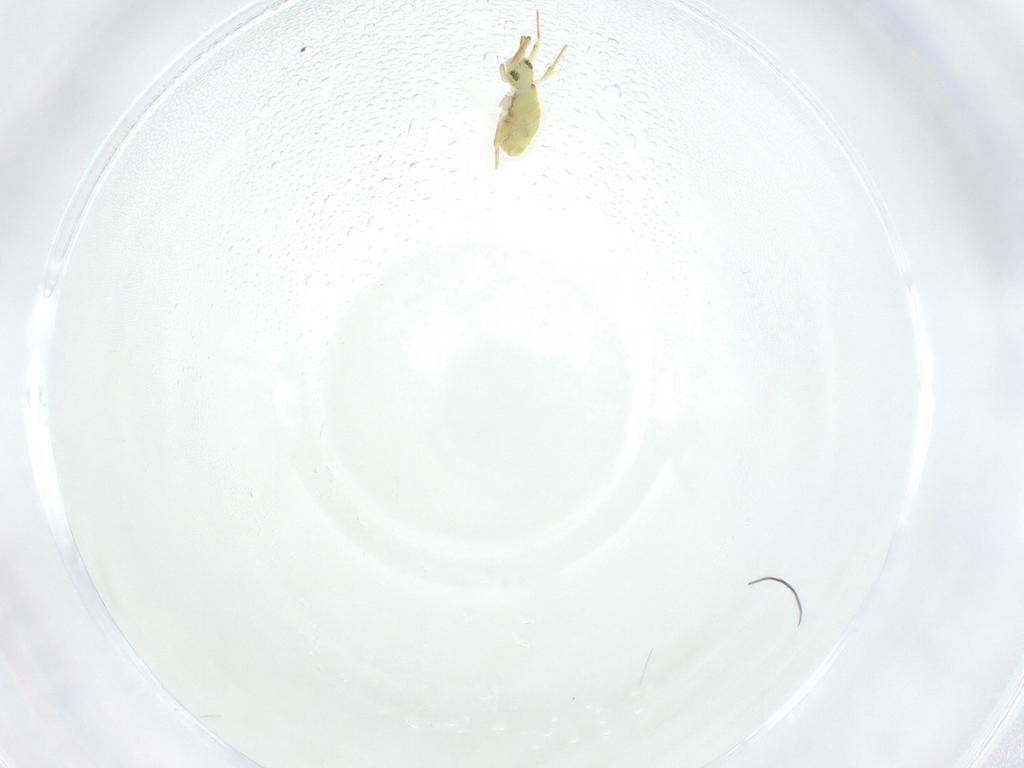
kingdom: Animalia
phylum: Arthropoda
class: Collembola
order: Entomobryomorpha
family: Paronellidae
